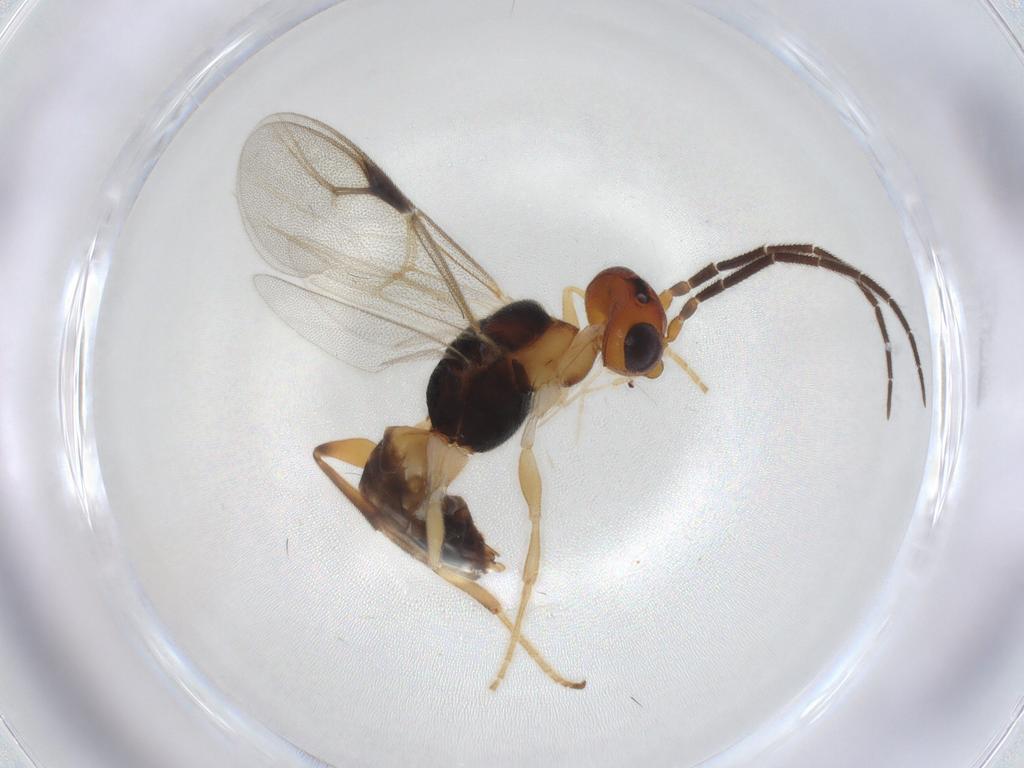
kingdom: Animalia
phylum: Arthropoda
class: Insecta
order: Hymenoptera
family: Dryinidae
